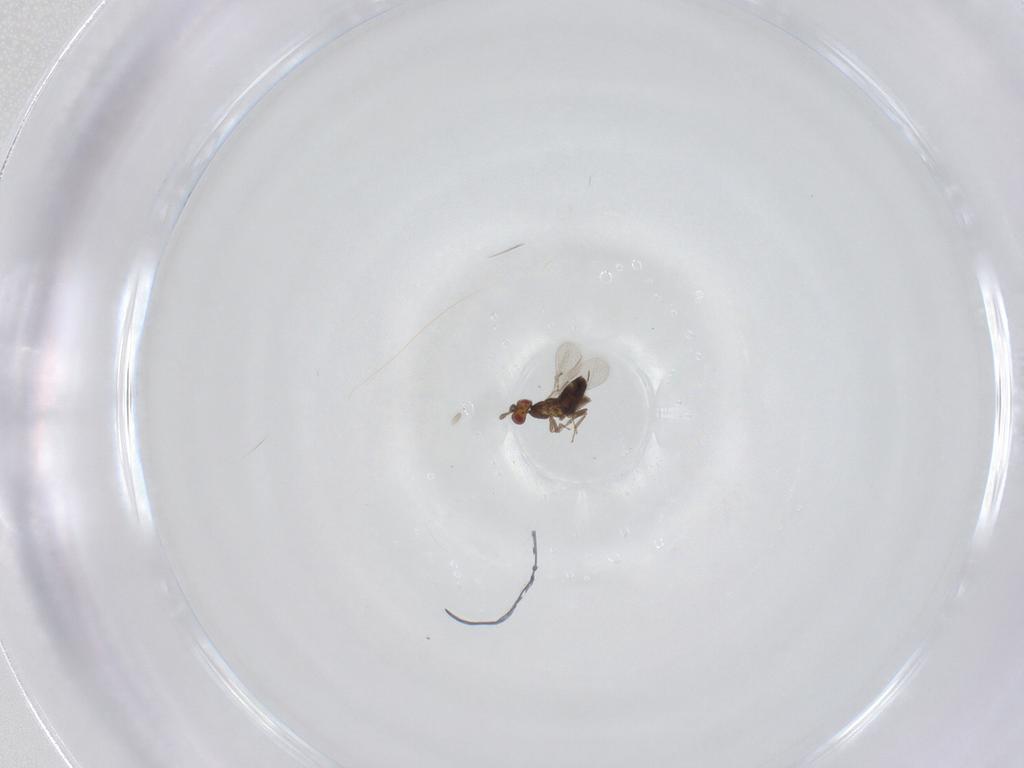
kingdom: Animalia
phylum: Arthropoda
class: Insecta
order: Hymenoptera
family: Trichogrammatidae
